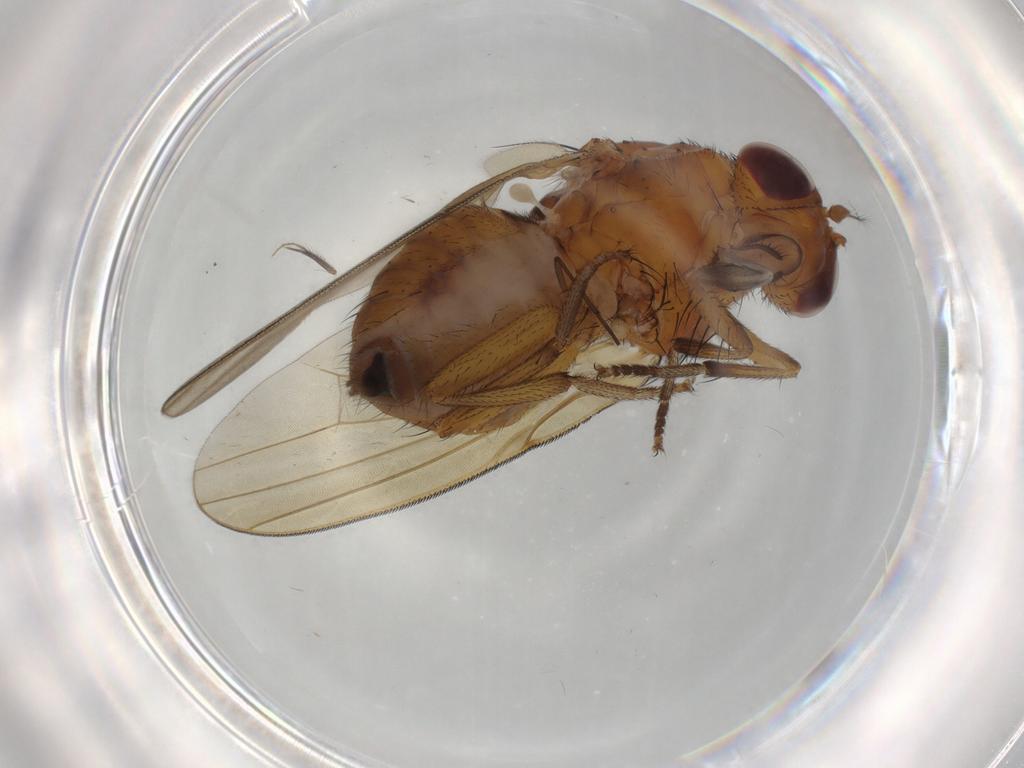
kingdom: Animalia
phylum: Arthropoda
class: Insecta
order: Diptera
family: Ceratopogonidae
